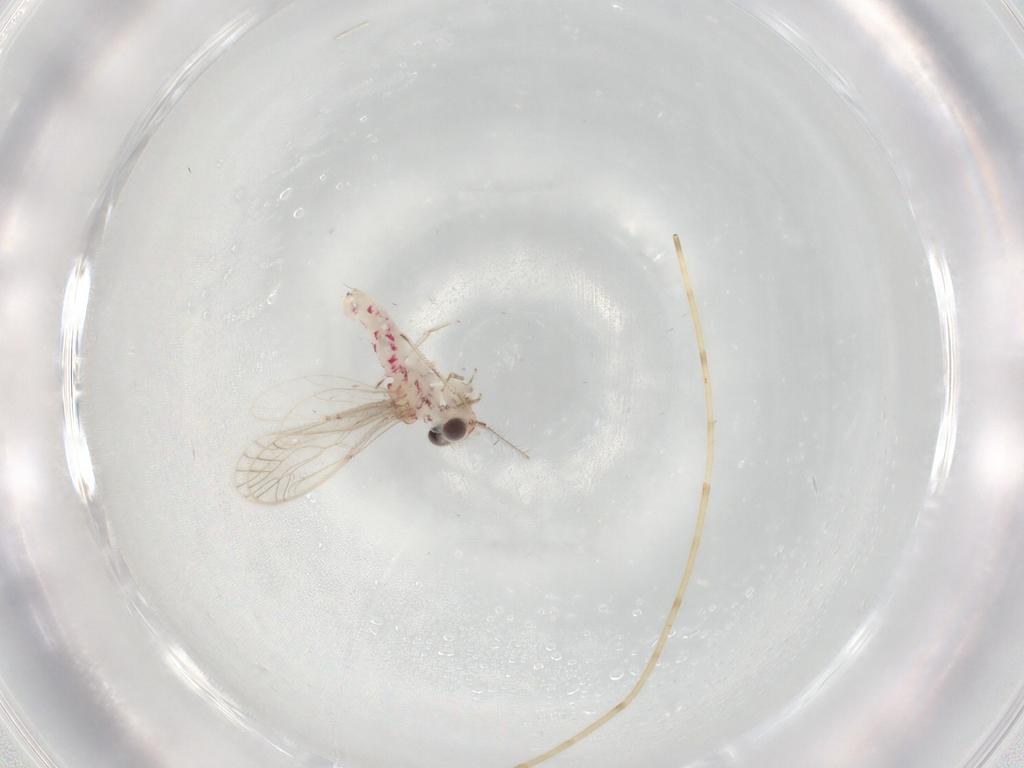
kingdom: Animalia
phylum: Arthropoda
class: Insecta
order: Psocodea
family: Caeciliusidae
